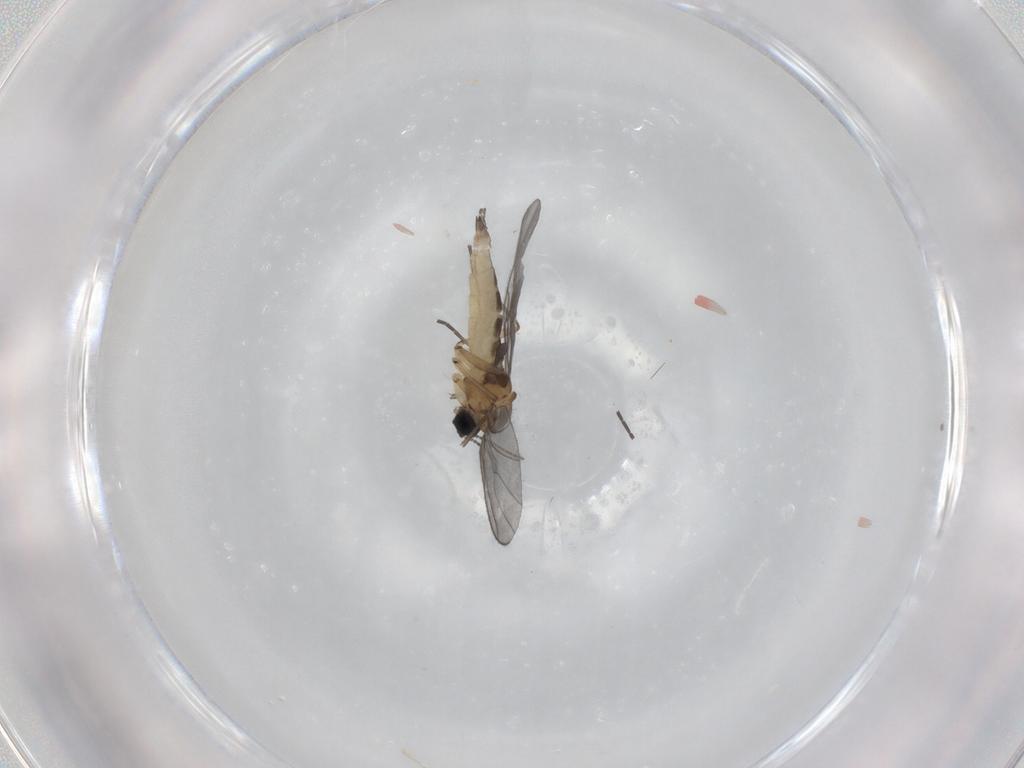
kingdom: Animalia
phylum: Arthropoda
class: Insecta
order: Diptera
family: Sciaridae
